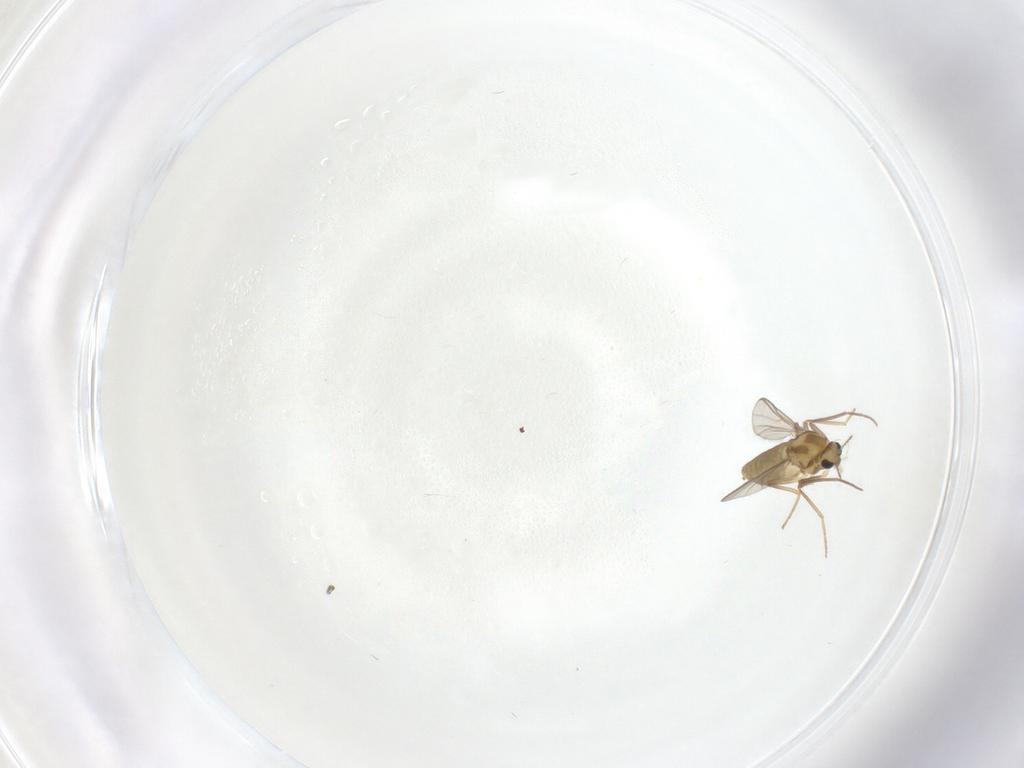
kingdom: Animalia
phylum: Arthropoda
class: Insecta
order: Diptera
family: Chironomidae
